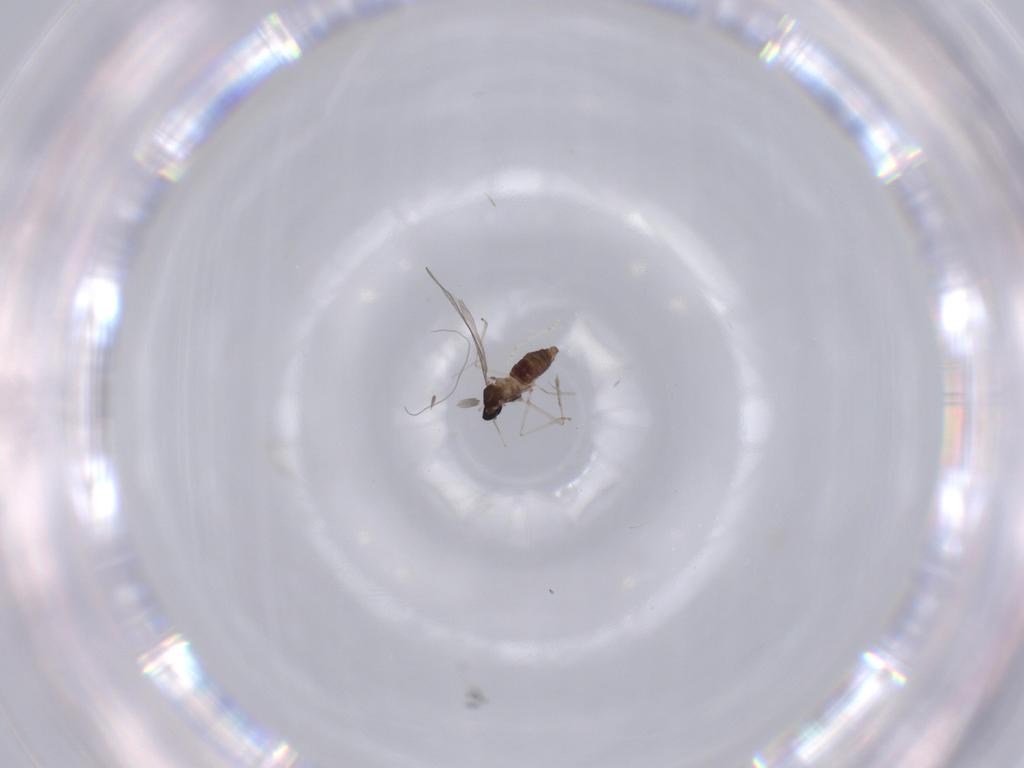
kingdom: Animalia
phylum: Arthropoda
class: Insecta
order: Diptera
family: Cecidomyiidae
